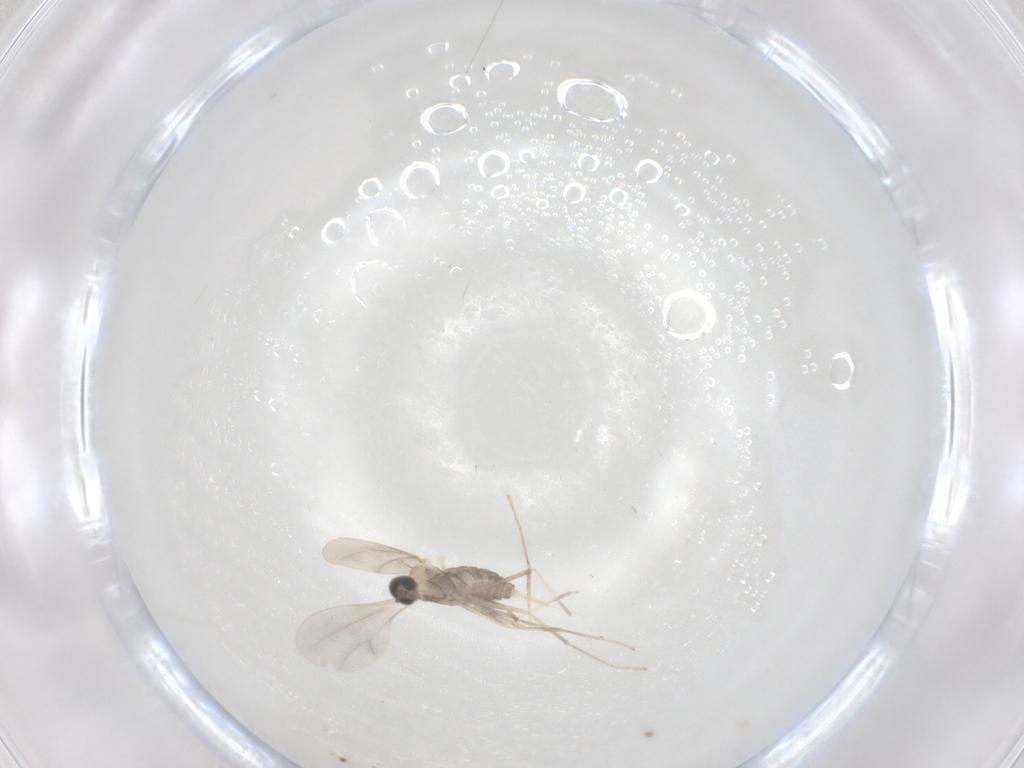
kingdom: Animalia
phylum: Arthropoda
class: Insecta
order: Diptera
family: Cecidomyiidae
